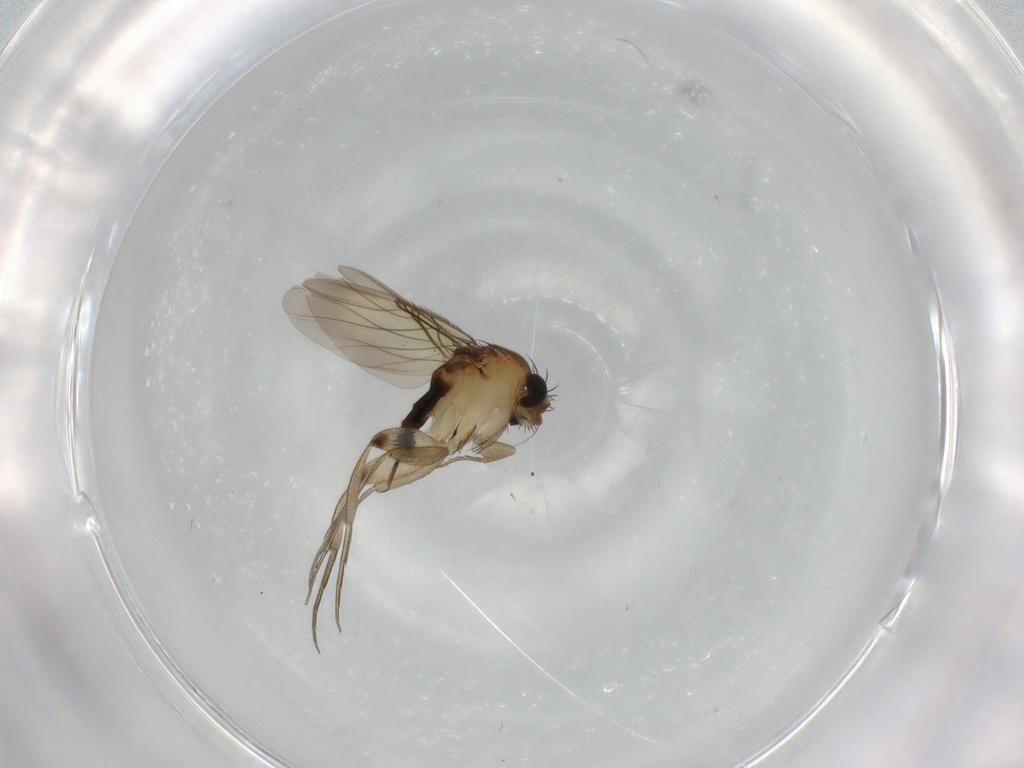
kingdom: Animalia
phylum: Arthropoda
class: Insecta
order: Diptera
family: Phoridae
